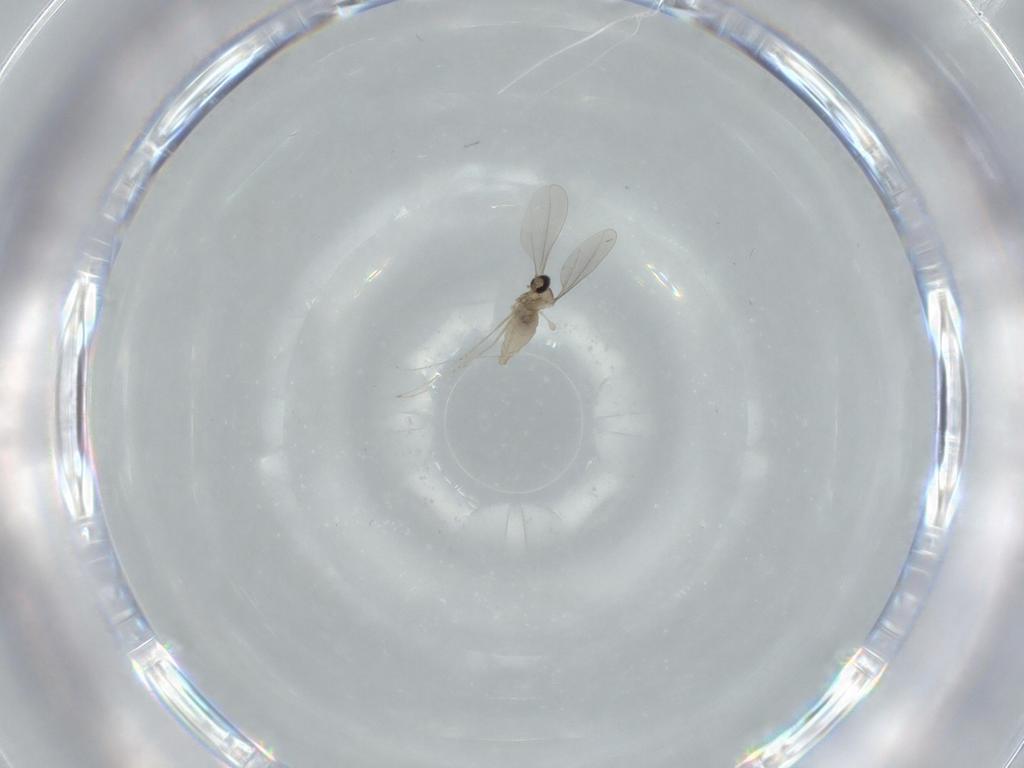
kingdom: Animalia
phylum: Arthropoda
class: Insecta
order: Diptera
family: Cecidomyiidae
